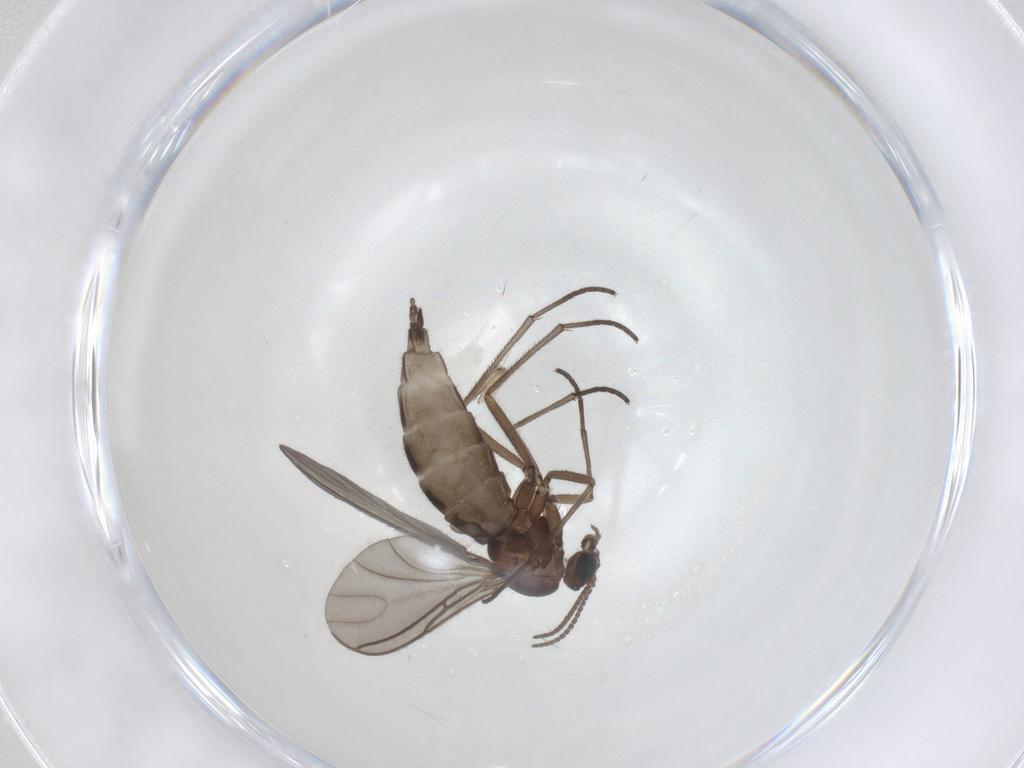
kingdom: Animalia
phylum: Arthropoda
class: Insecta
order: Diptera
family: Sciaridae
